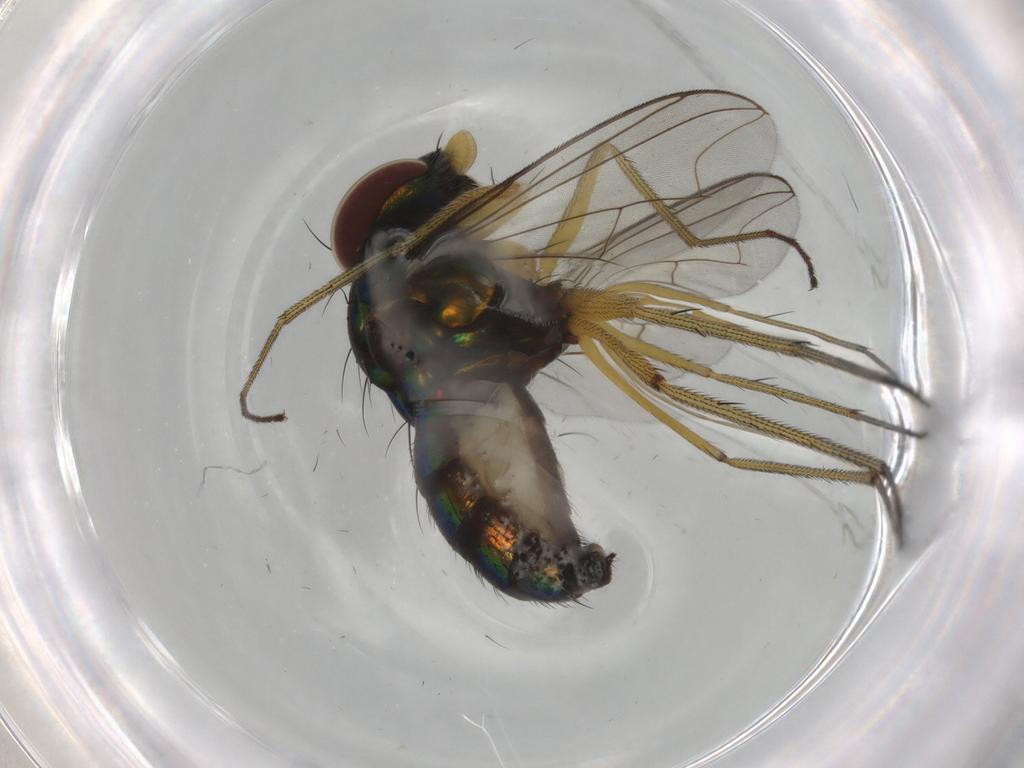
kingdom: Animalia
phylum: Arthropoda
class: Insecta
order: Diptera
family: Dolichopodidae
